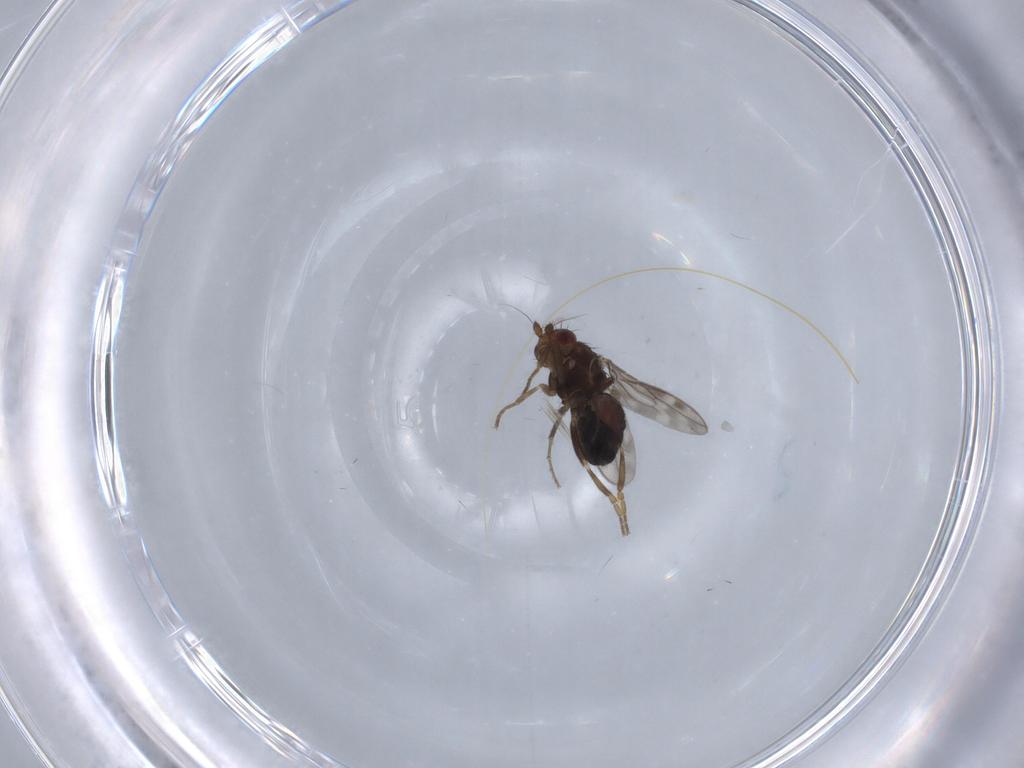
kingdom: Animalia
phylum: Arthropoda
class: Insecta
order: Diptera
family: Sphaeroceridae
